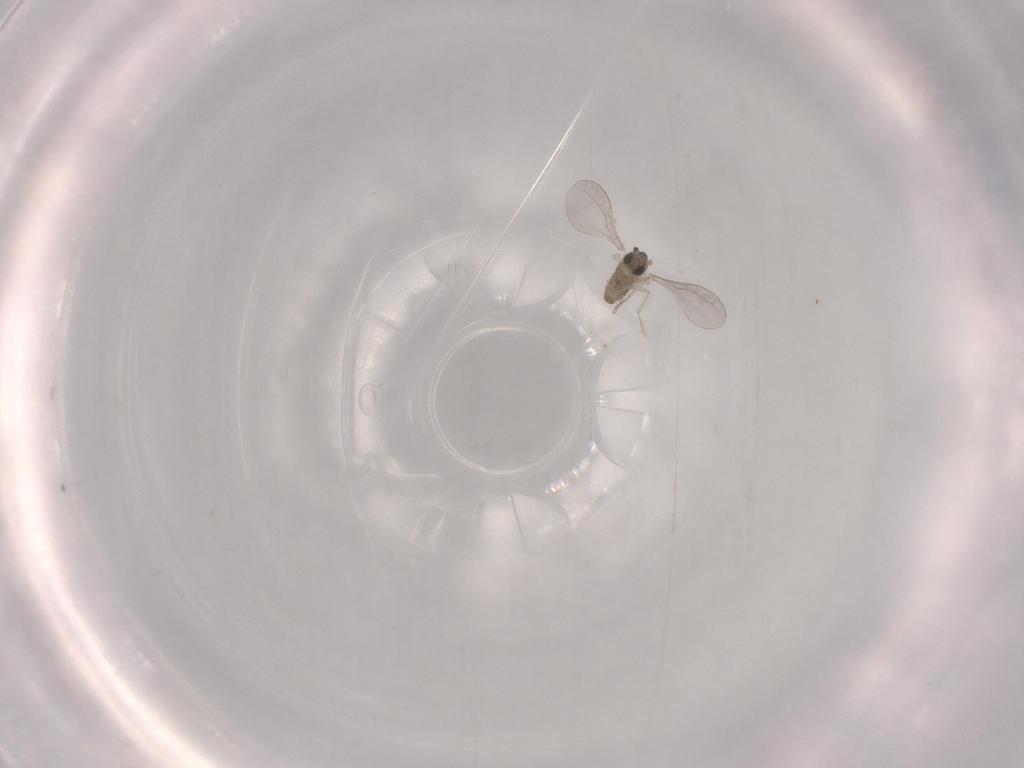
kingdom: Animalia
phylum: Arthropoda
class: Insecta
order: Diptera
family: Cecidomyiidae
